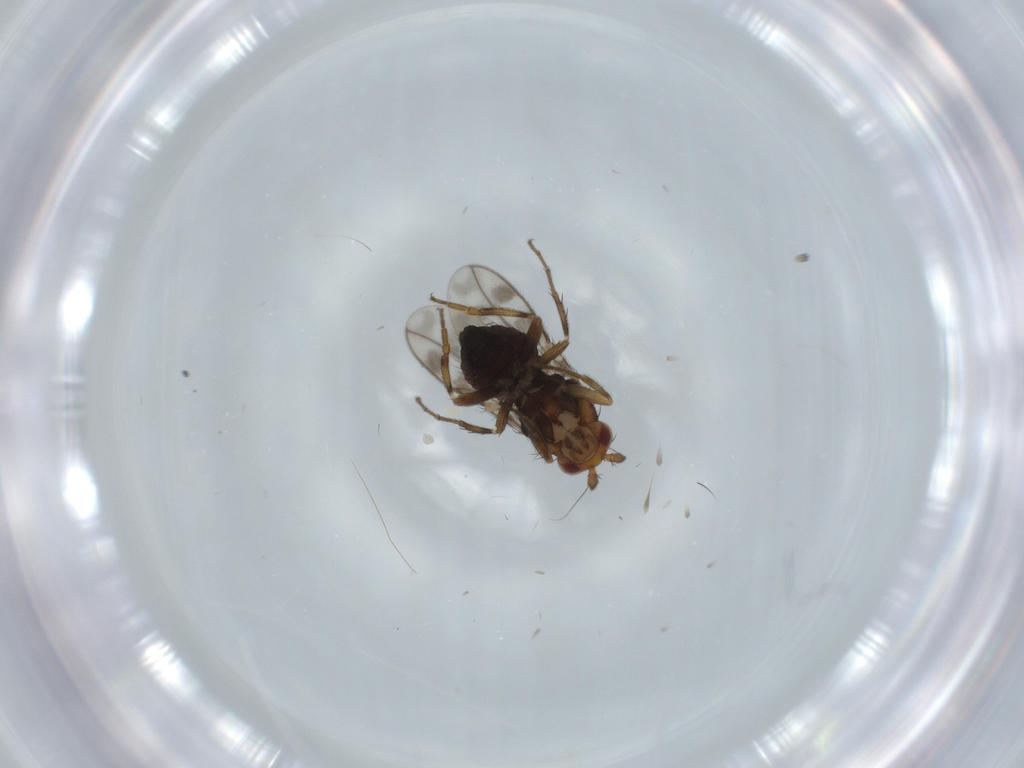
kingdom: Animalia
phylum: Arthropoda
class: Insecta
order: Diptera
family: Sphaeroceridae
